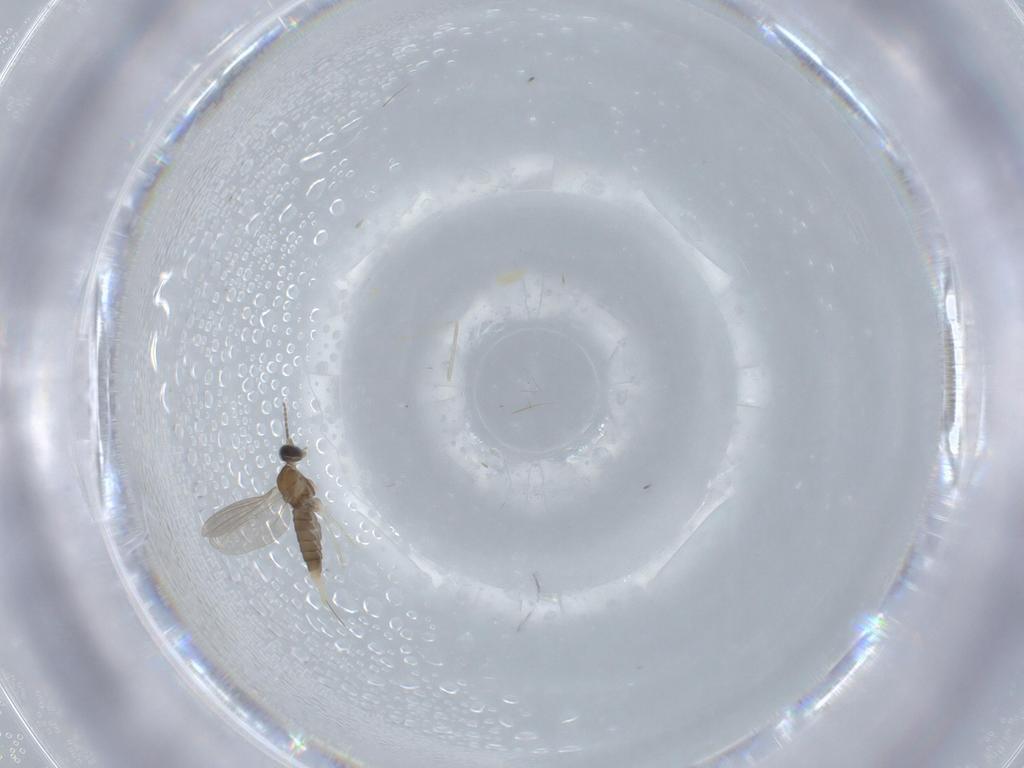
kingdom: Animalia
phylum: Arthropoda
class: Insecta
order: Diptera
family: Cecidomyiidae
